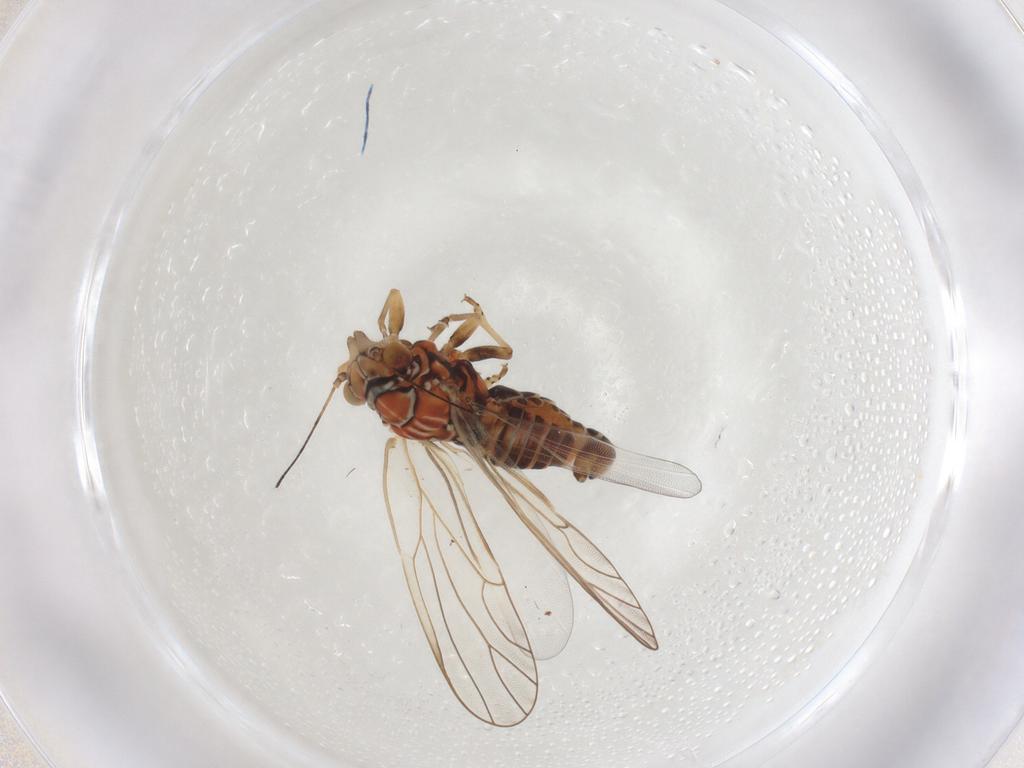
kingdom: Animalia
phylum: Arthropoda
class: Insecta
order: Hemiptera
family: Psyllidae
